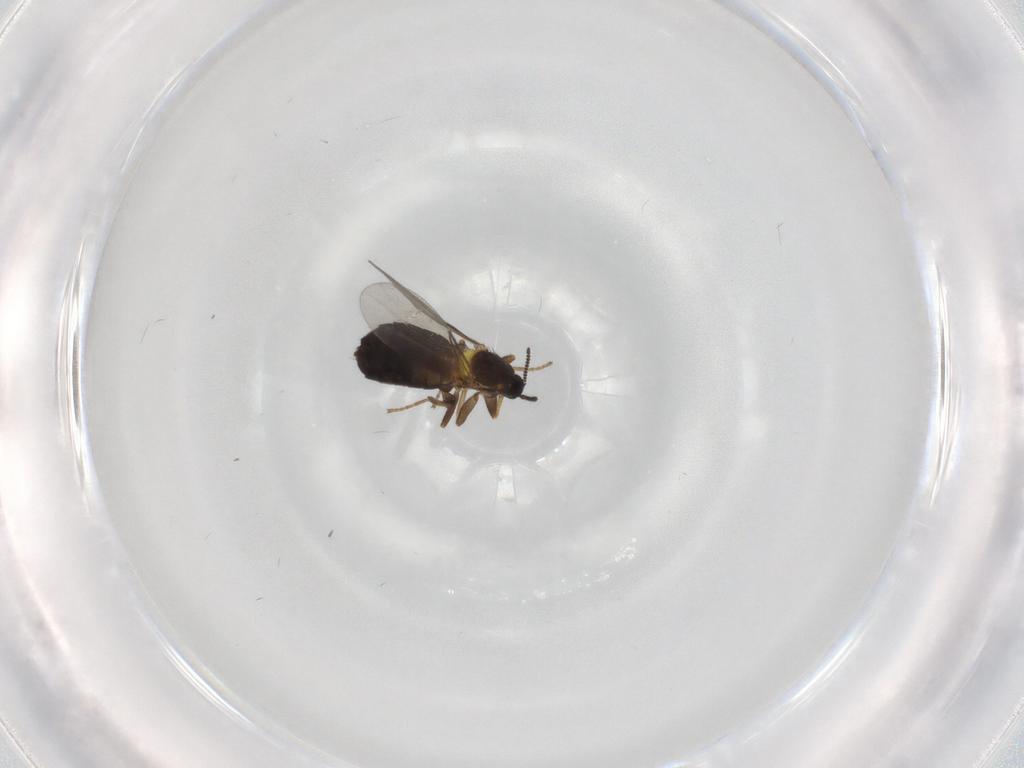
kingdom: Animalia
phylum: Arthropoda
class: Insecta
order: Diptera
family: Scatopsidae
